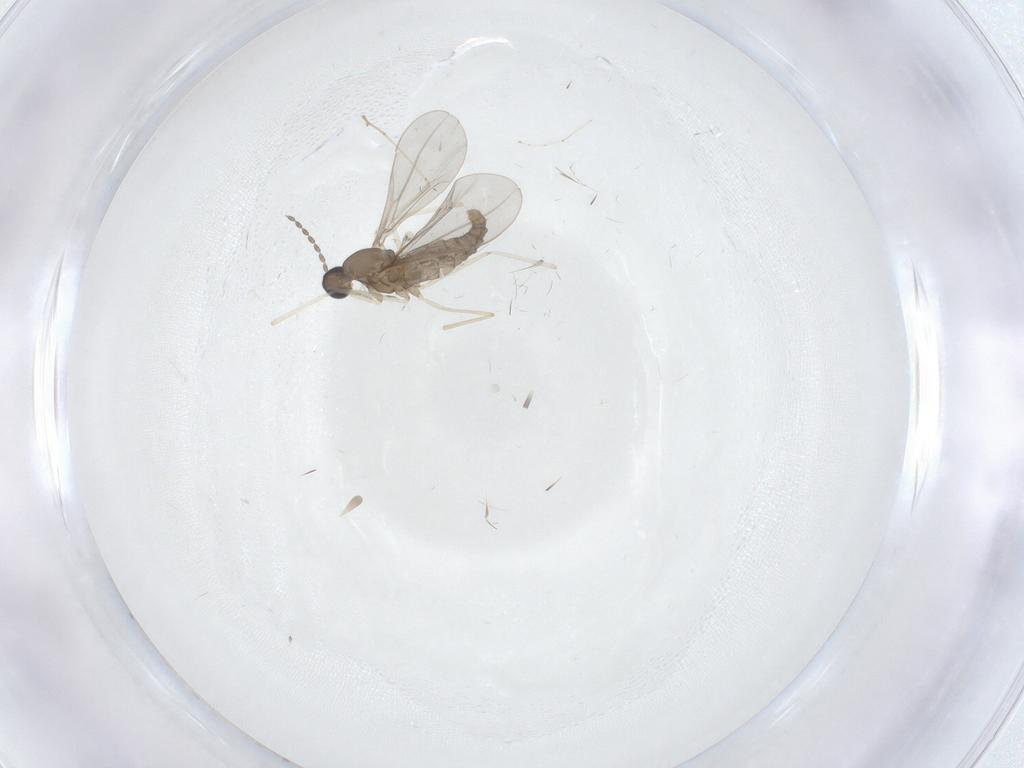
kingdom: Animalia
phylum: Arthropoda
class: Insecta
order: Diptera
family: Cecidomyiidae
